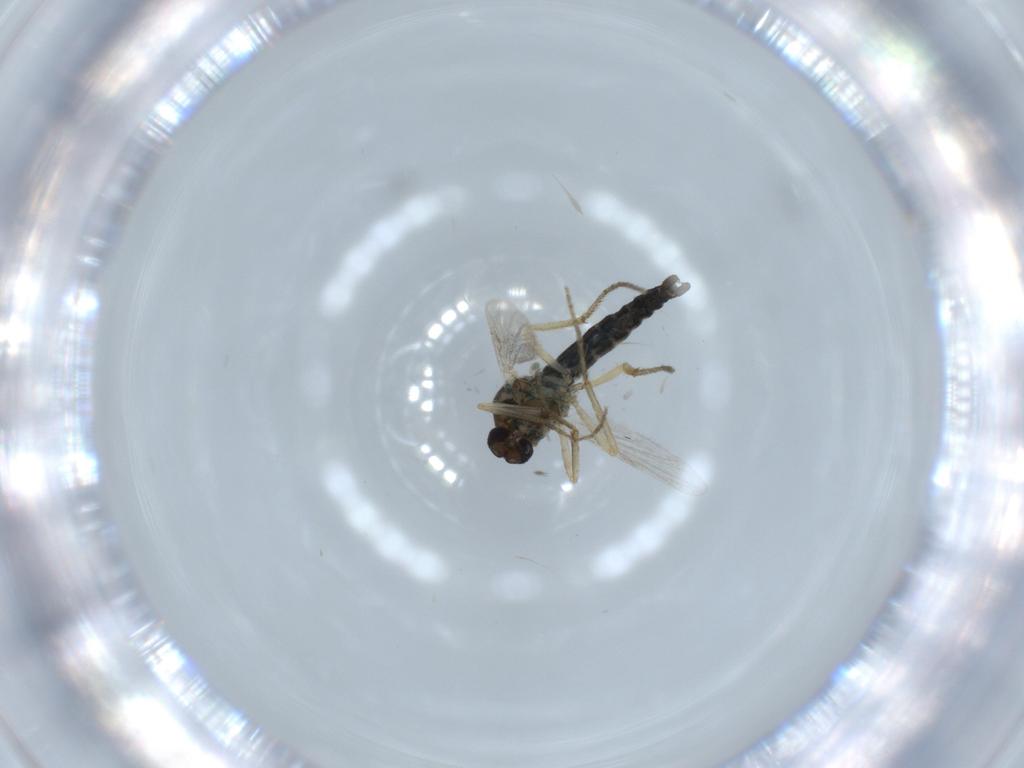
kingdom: Animalia
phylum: Arthropoda
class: Insecta
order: Diptera
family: Ceratopogonidae
